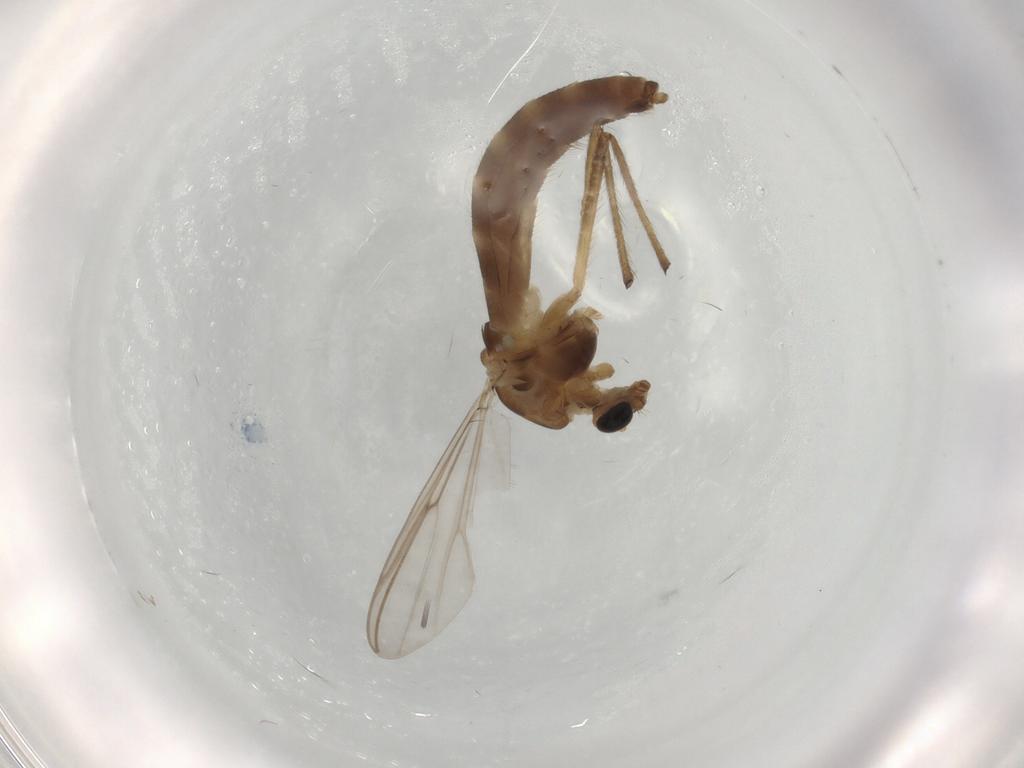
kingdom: Animalia
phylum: Arthropoda
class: Insecta
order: Diptera
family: Chironomidae
